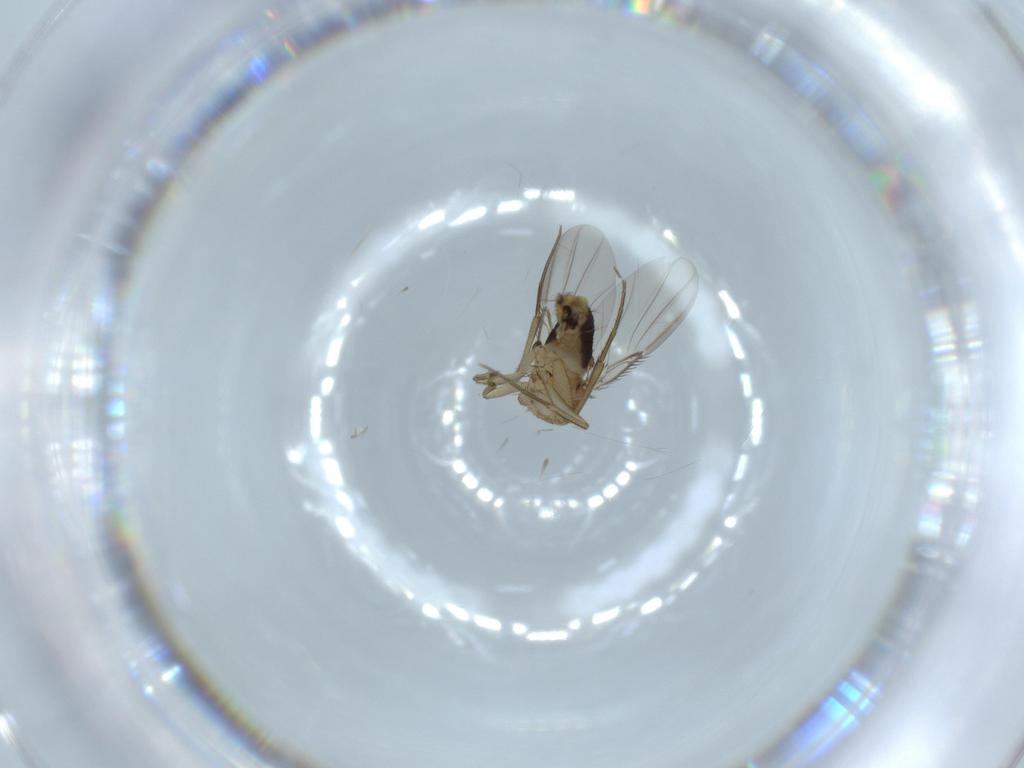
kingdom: Animalia
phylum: Arthropoda
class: Insecta
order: Diptera
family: Phoridae
